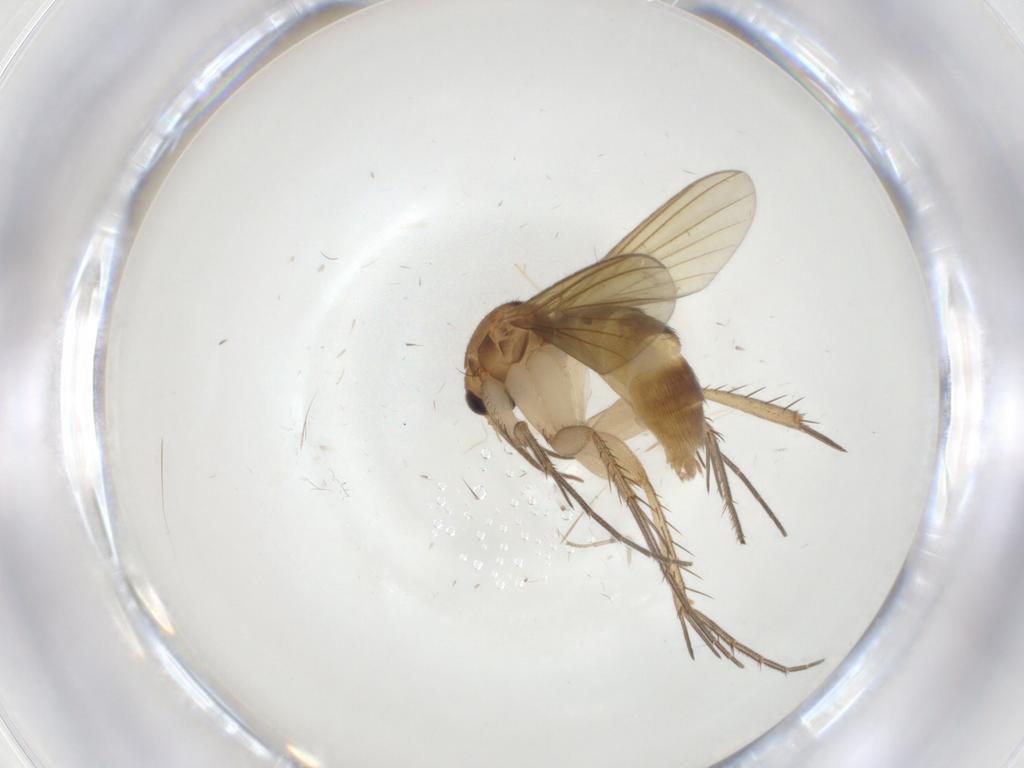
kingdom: Animalia
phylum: Arthropoda
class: Insecta
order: Diptera
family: Mycetophilidae
